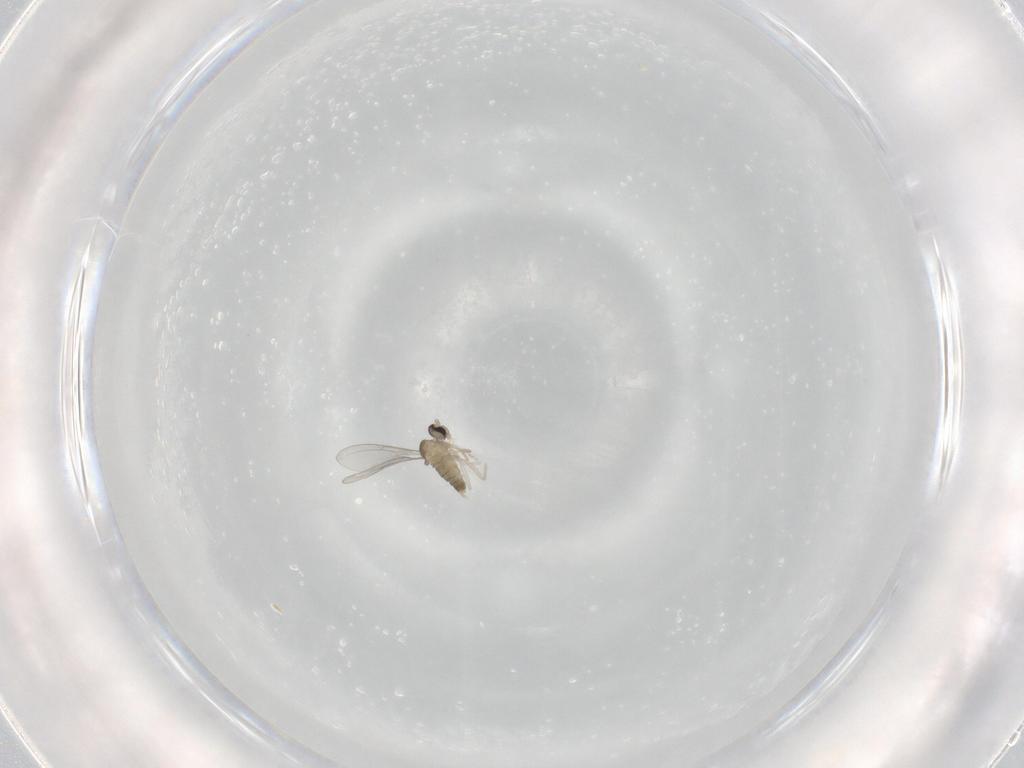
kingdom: Animalia
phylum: Arthropoda
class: Insecta
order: Diptera
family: Cecidomyiidae
